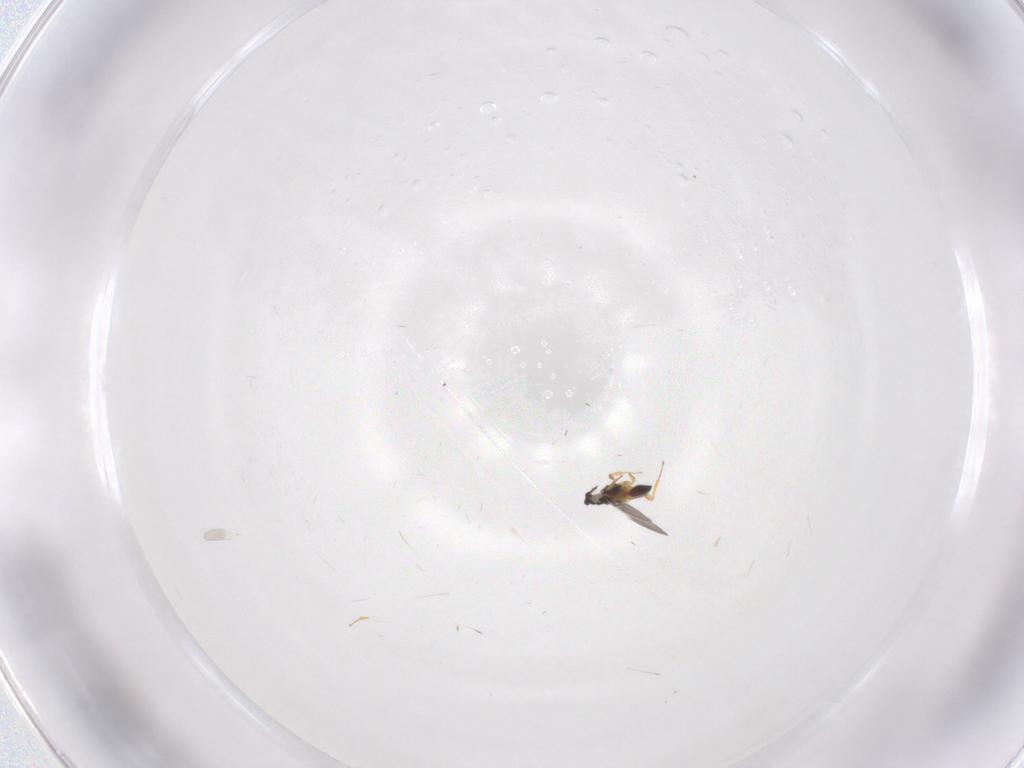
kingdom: Animalia
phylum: Arthropoda
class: Insecta
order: Hymenoptera
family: Platygastridae
